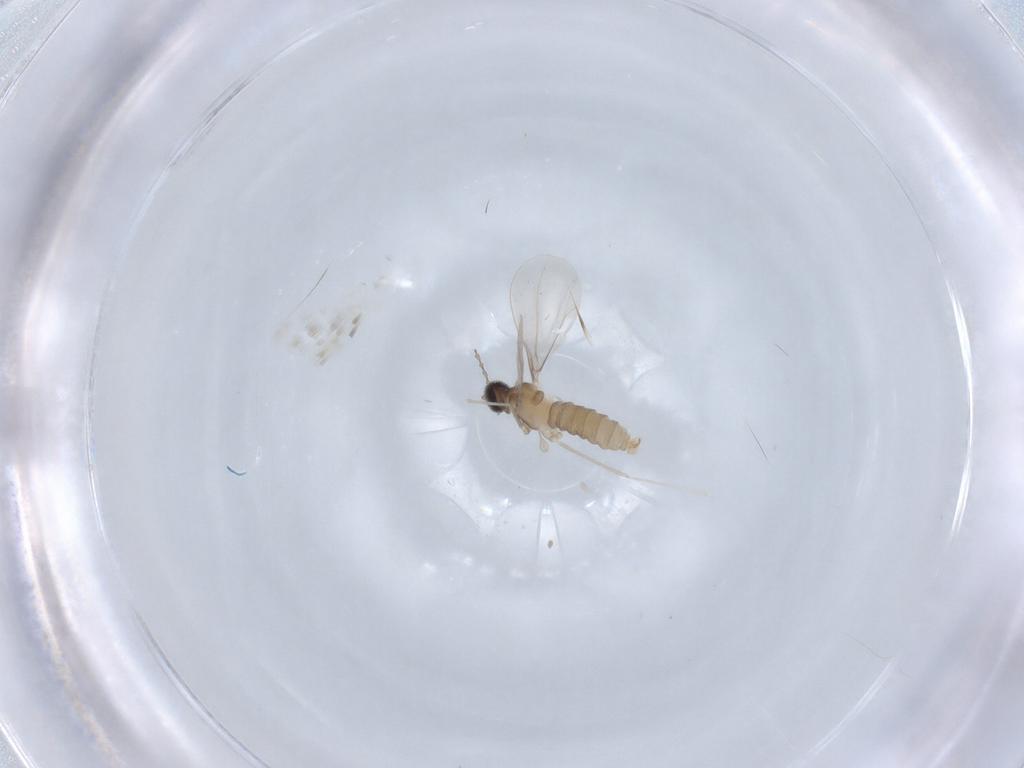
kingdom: Animalia
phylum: Arthropoda
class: Insecta
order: Diptera
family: Cecidomyiidae
